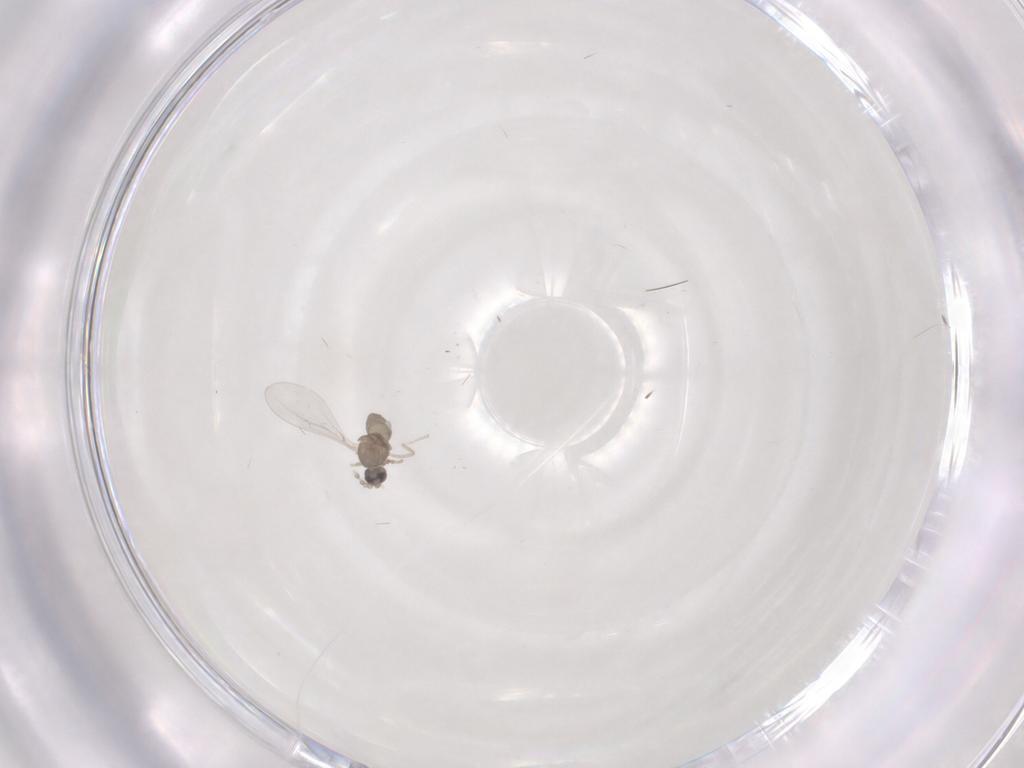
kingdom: Animalia
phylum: Arthropoda
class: Insecta
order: Diptera
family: Cecidomyiidae
